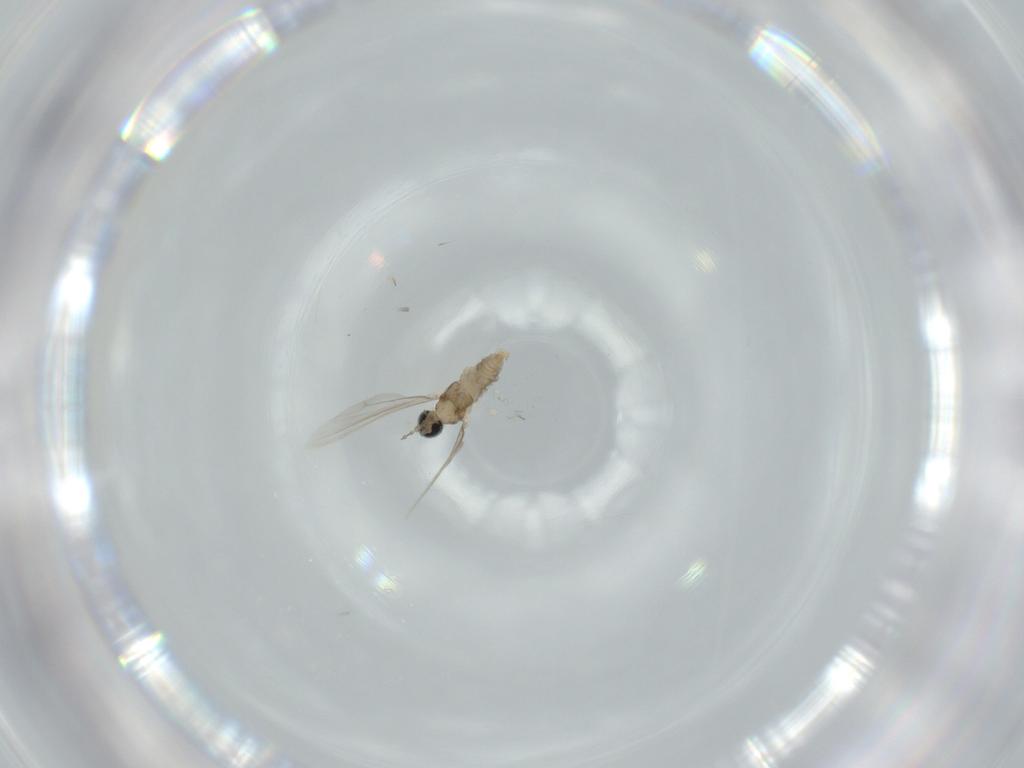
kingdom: Animalia
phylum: Arthropoda
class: Insecta
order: Diptera
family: Cecidomyiidae
